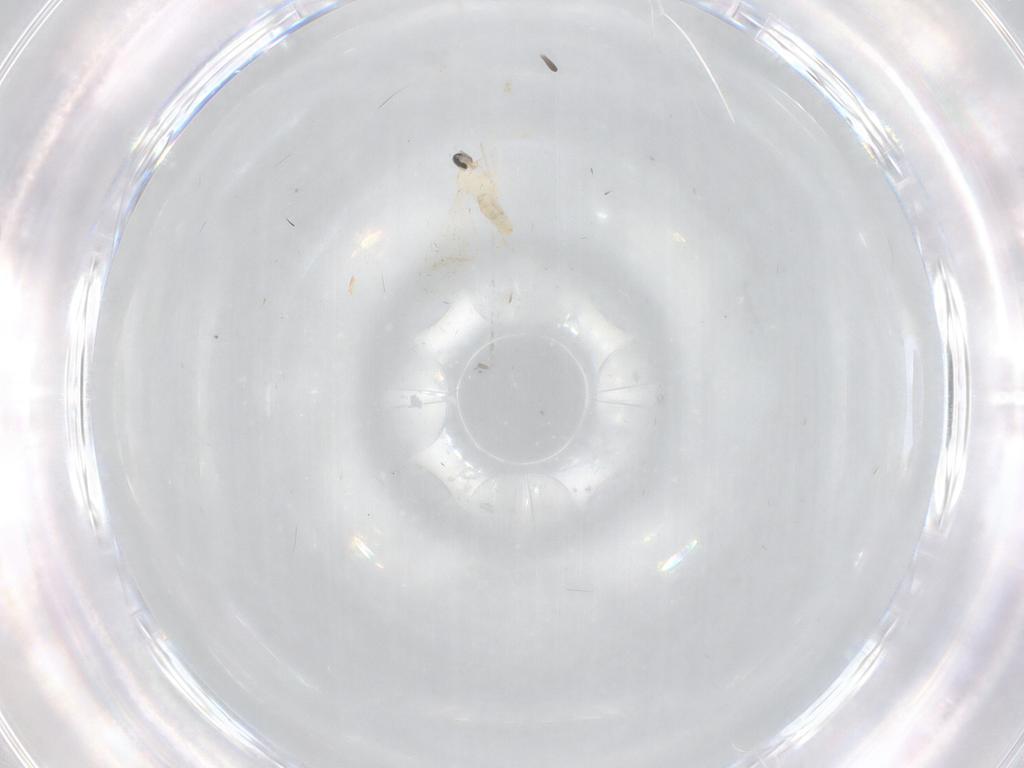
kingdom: Animalia
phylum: Arthropoda
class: Insecta
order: Diptera
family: Cecidomyiidae
